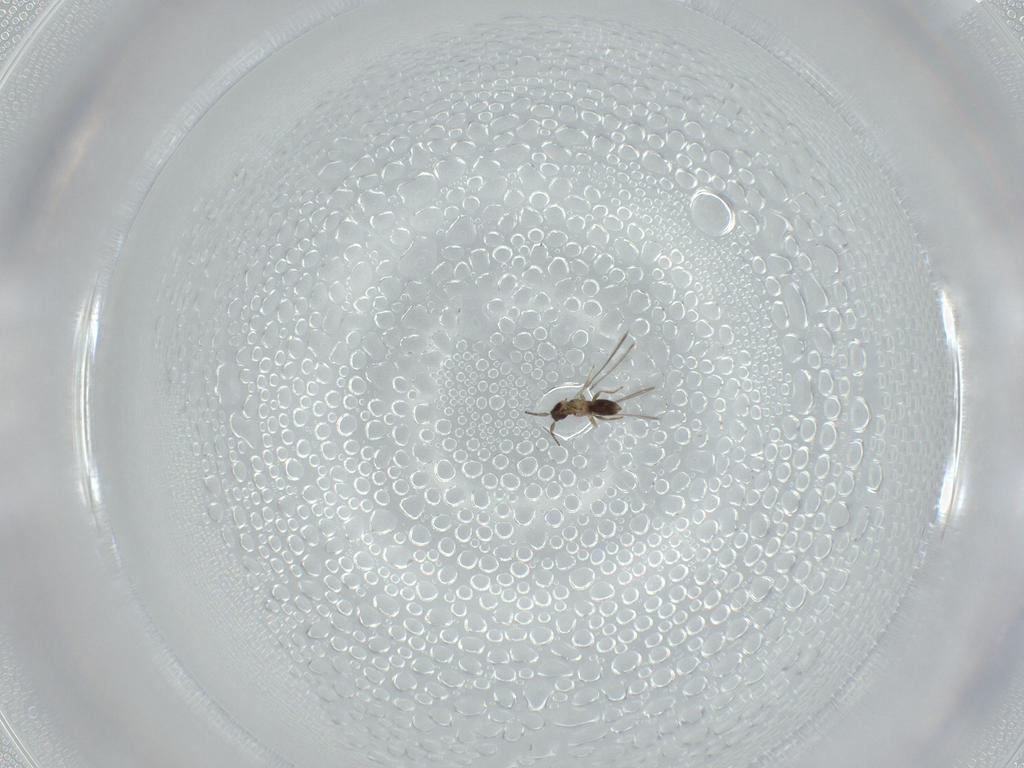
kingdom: Animalia
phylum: Arthropoda
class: Insecta
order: Hymenoptera
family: Mymaridae
